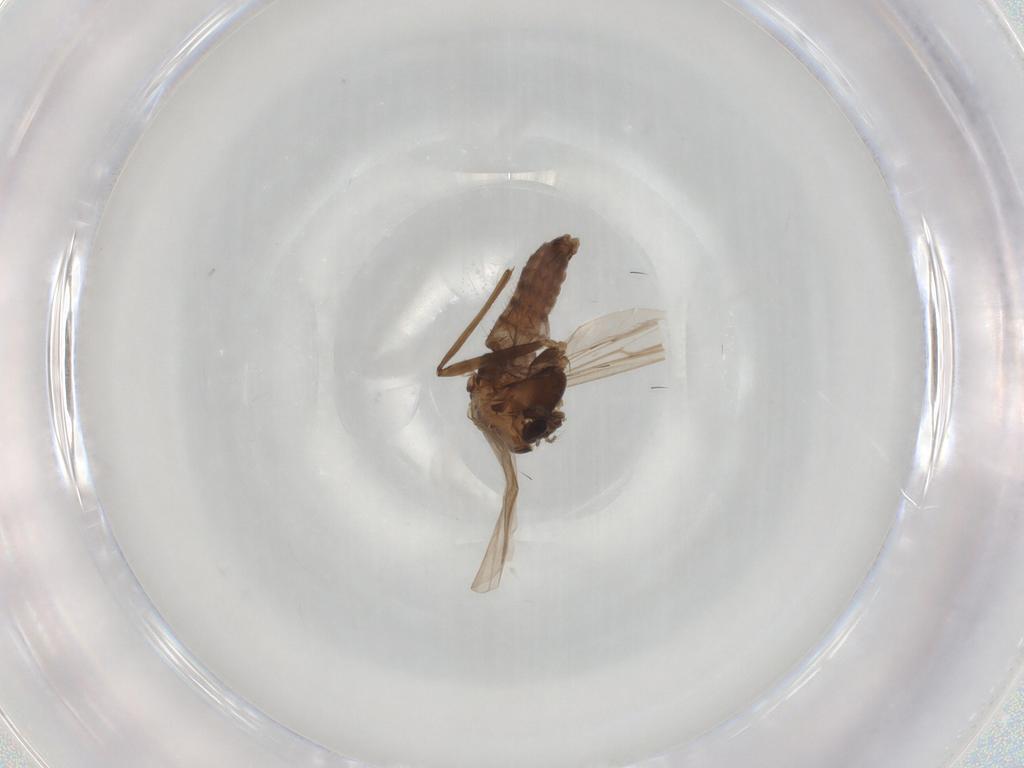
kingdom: Animalia
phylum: Arthropoda
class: Insecta
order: Diptera
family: Chironomidae
